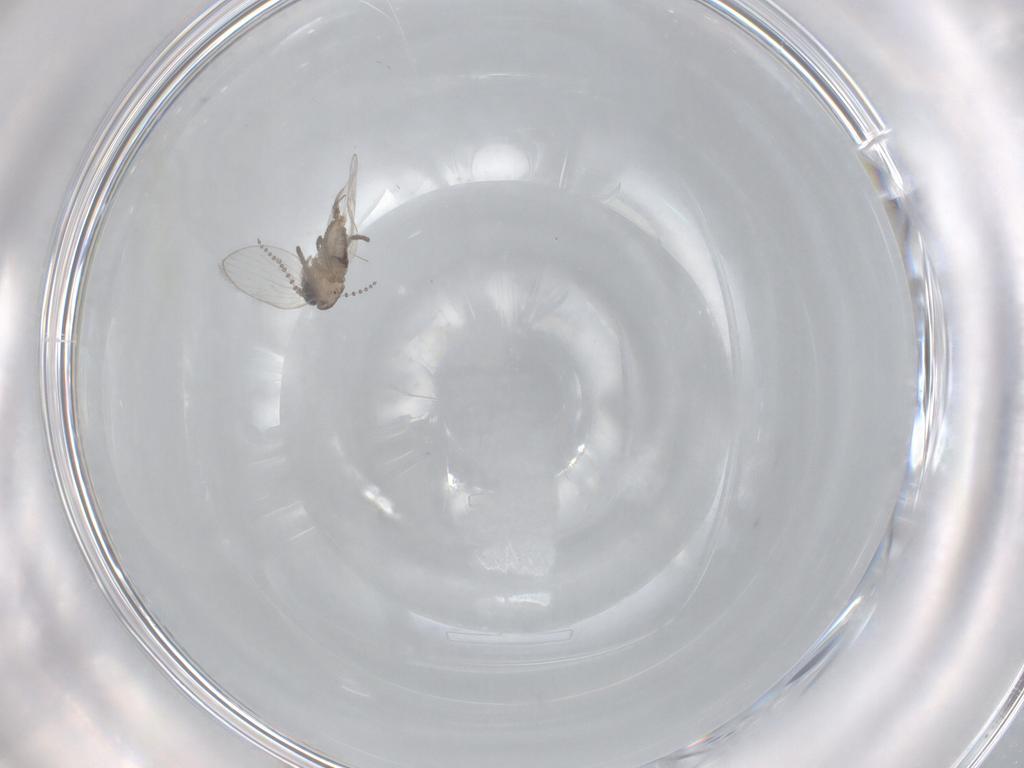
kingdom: Animalia
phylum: Arthropoda
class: Insecta
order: Diptera
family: Psychodidae
